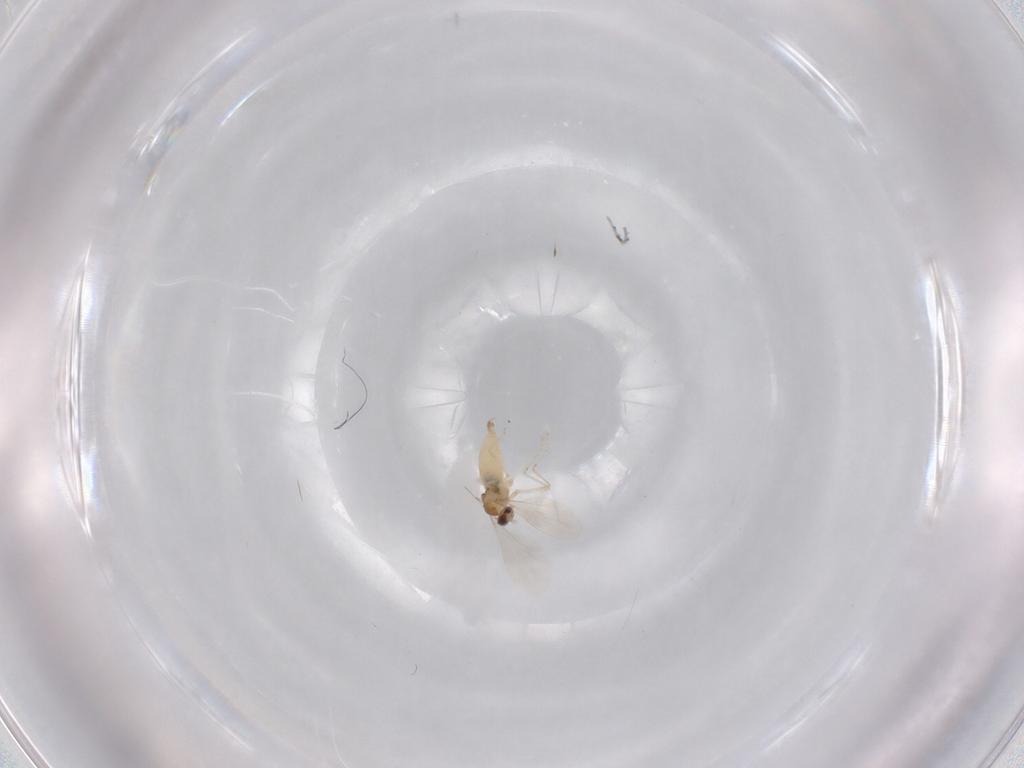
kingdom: Animalia
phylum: Arthropoda
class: Insecta
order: Diptera
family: Cecidomyiidae
